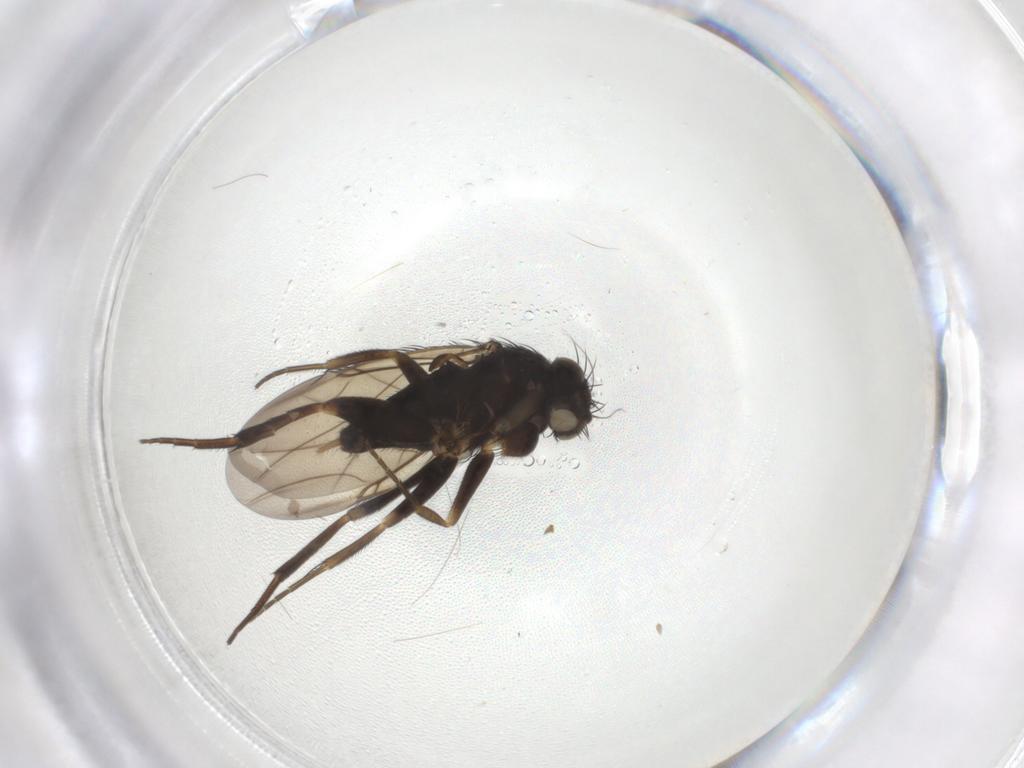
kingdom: Animalia
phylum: Arthropoda
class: Insecta
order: Diptera
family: Phoridae
